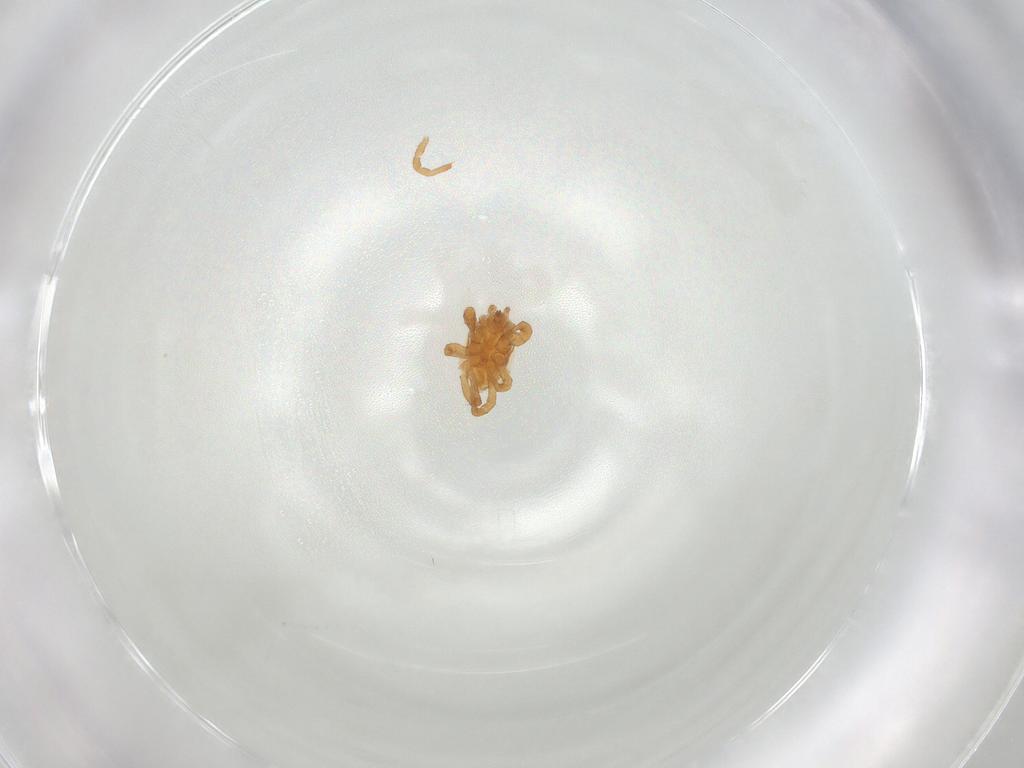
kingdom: Animalia
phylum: Arthropoda
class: Arachnida
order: Mesostigmata
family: Parasitidae
